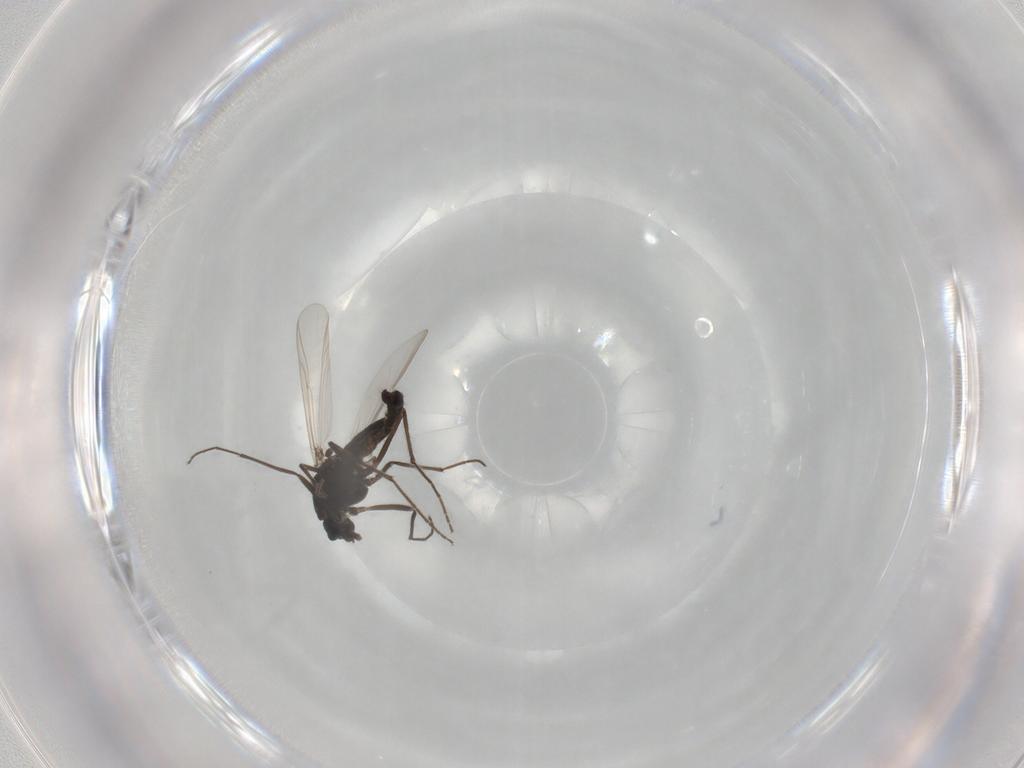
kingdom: Animalia
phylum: Arthropoda
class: Insecta
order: Diptera
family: Chironomidae
